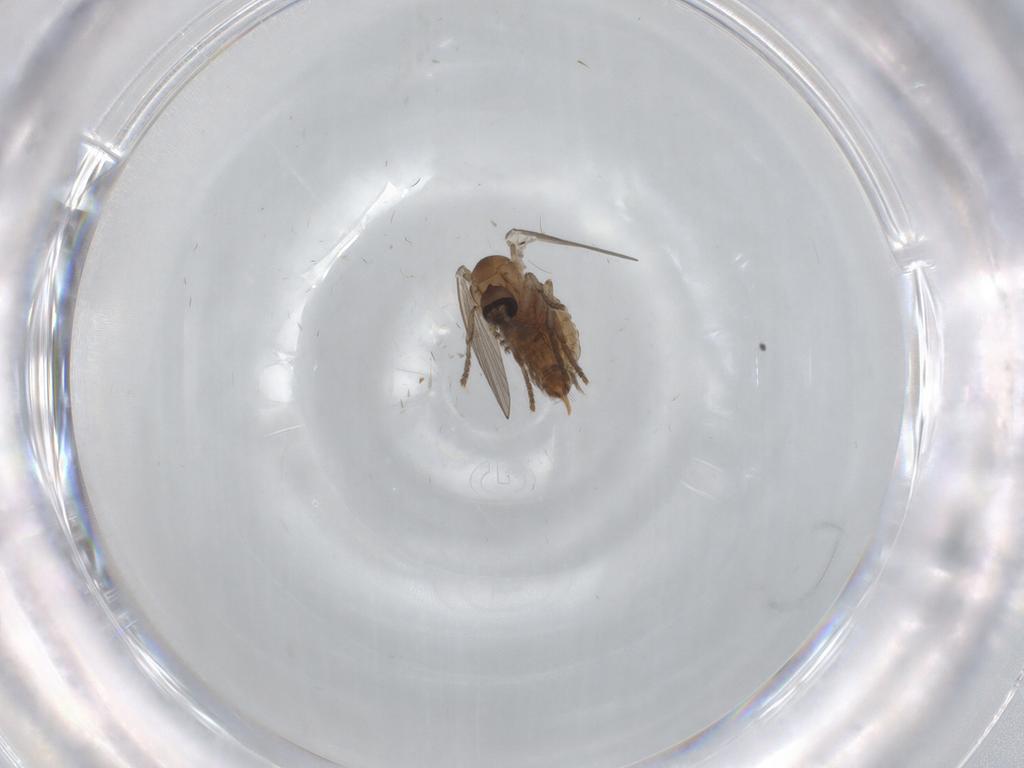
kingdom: Animalia
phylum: Arthropoda
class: Insecta
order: Diptera
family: Psychodidae
